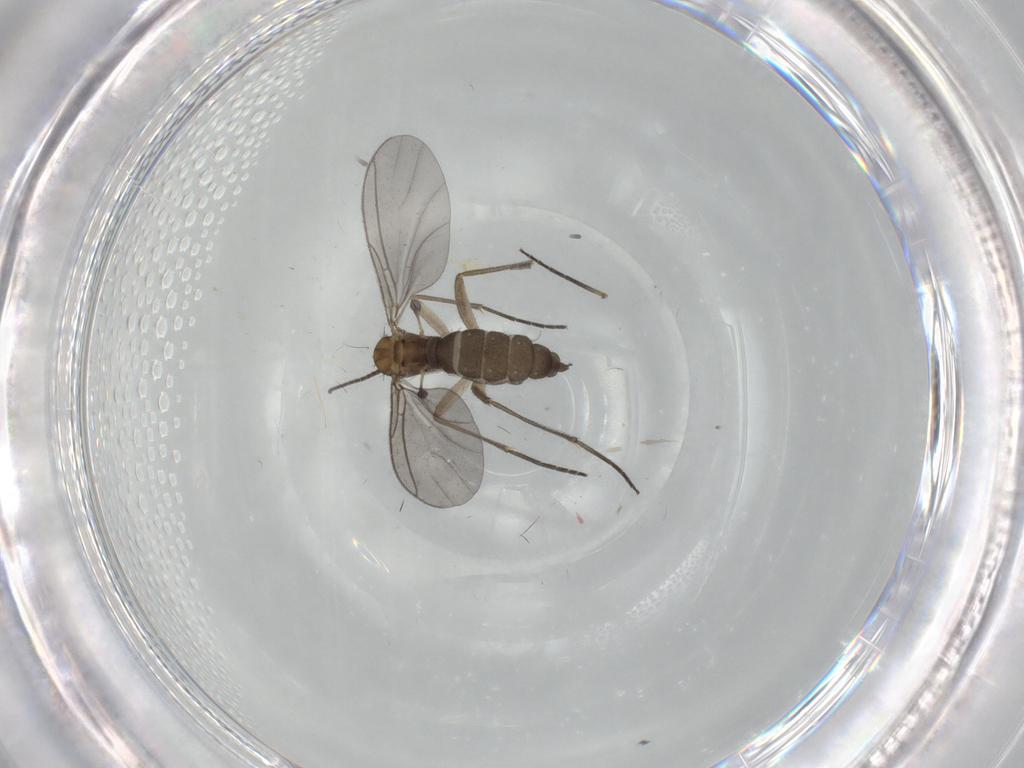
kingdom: Animalia
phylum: Arthropoda
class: Insecta
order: Diptera
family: Sciaridae
